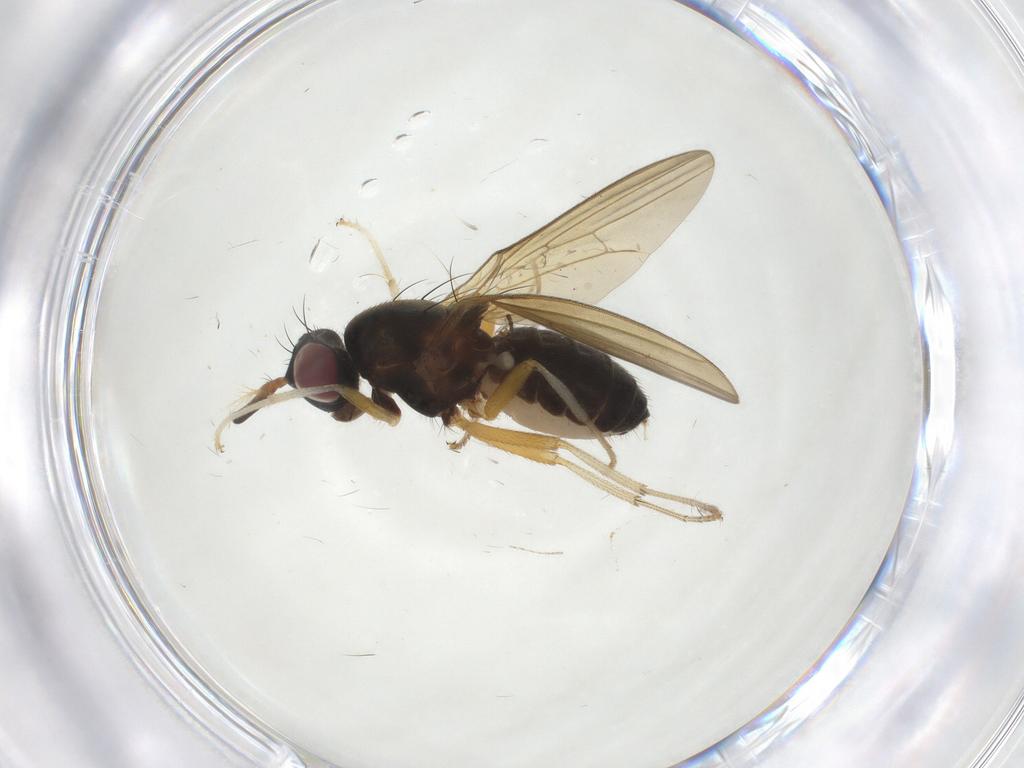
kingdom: Animalia
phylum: Arthropoda
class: Insecta
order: Diptera
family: Lauxaniidae
